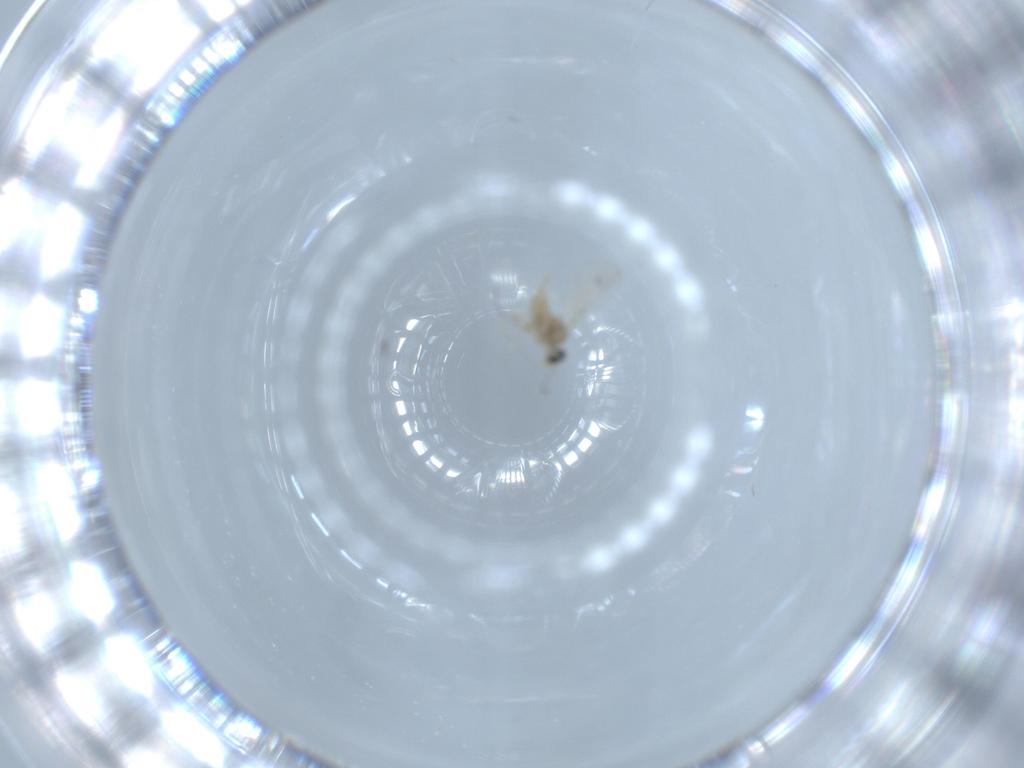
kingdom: Animalia
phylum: Arthropoda
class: Insecta
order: Diptera
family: Cecidomyiidae
